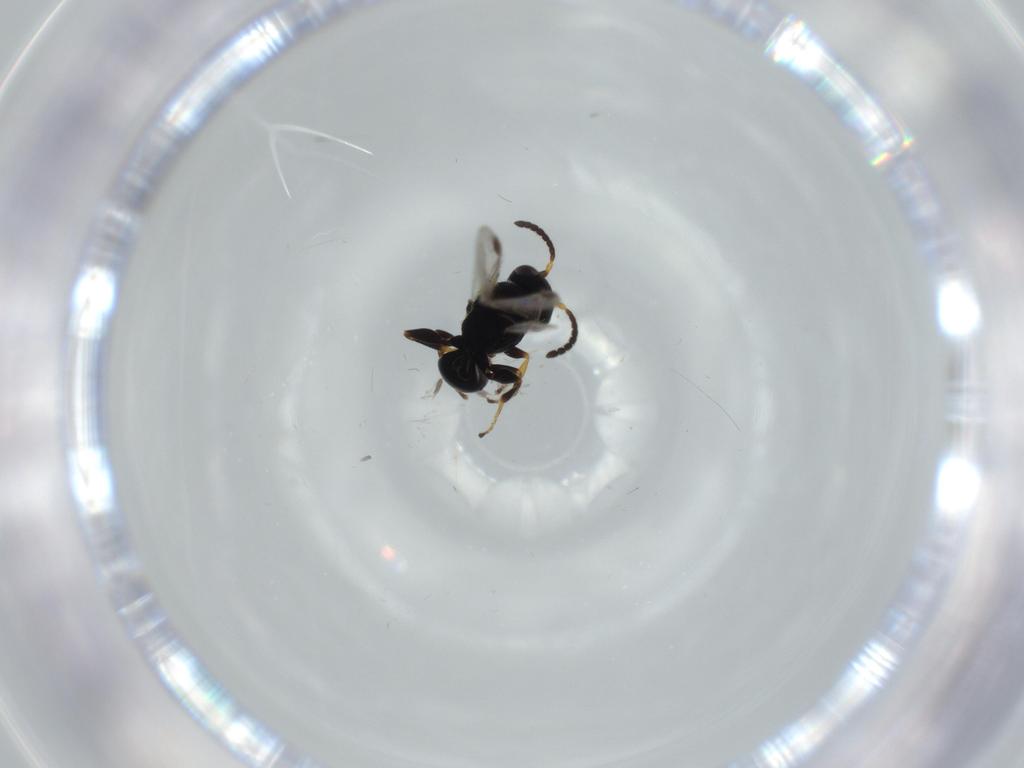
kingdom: Animalia
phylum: Arthropoda
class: Insecta
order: Hymenoptera
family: Dryinidae
